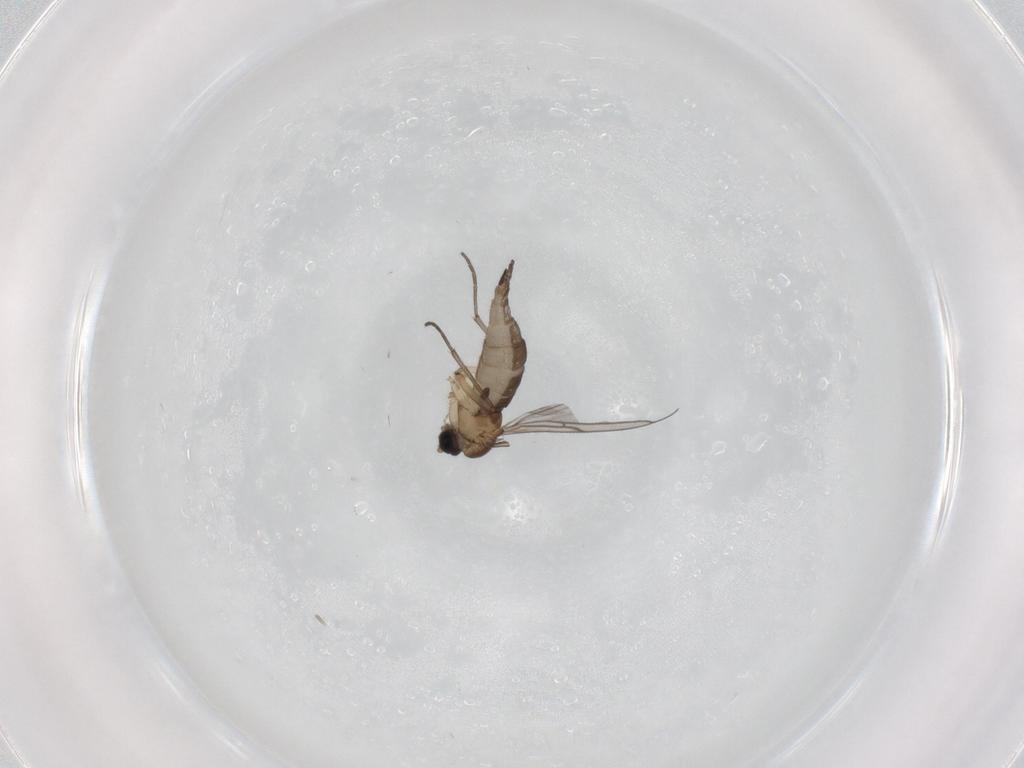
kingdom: Animalia
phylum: Arthropoda
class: Insecta
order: Diptera
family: Sciaridae
